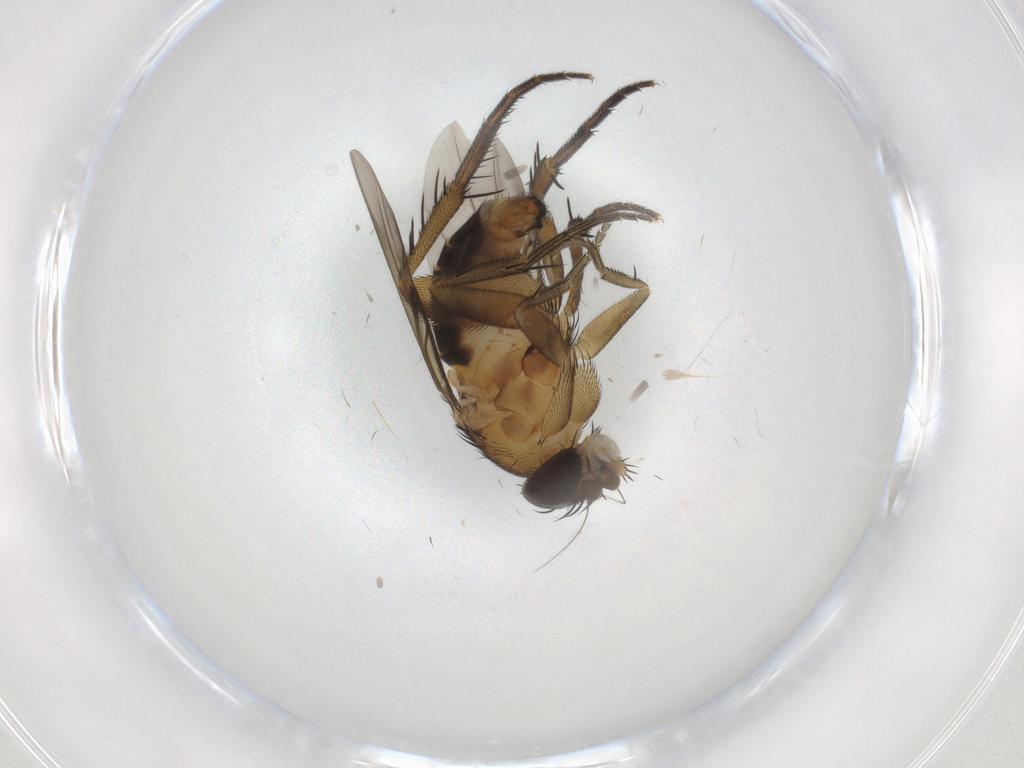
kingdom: Animalia
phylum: Arthropoda
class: Insecta
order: Diptera
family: Phoridae
